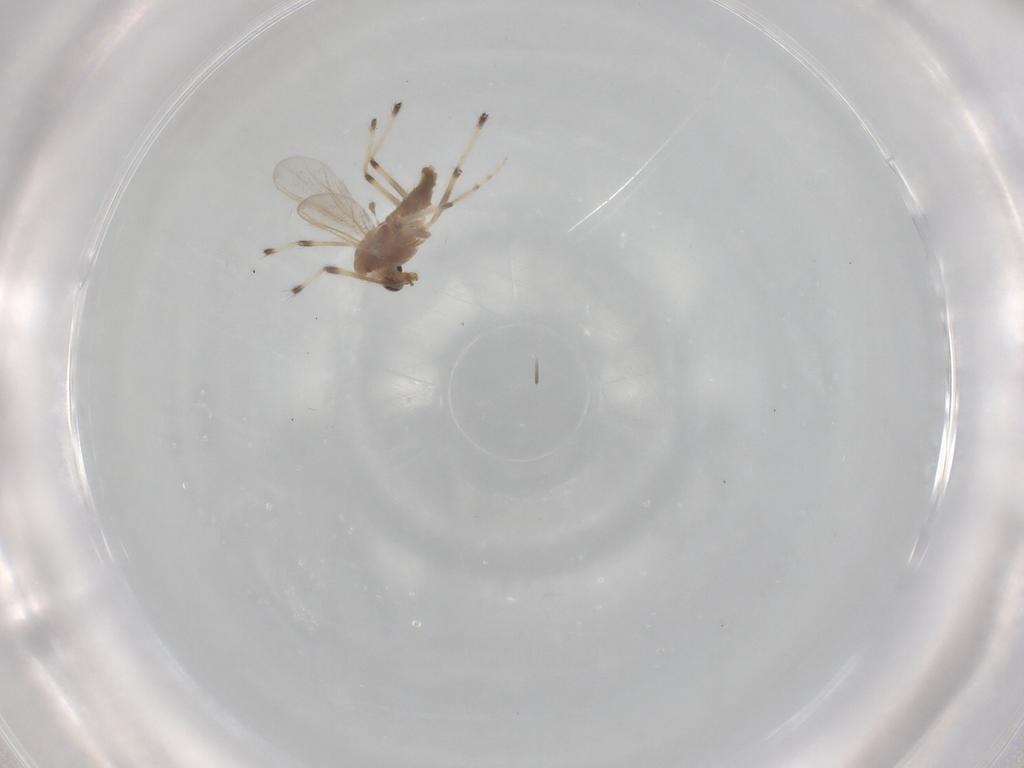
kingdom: Animalia
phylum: Arthropoda
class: Insecta
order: Diptera
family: Chironomidae
